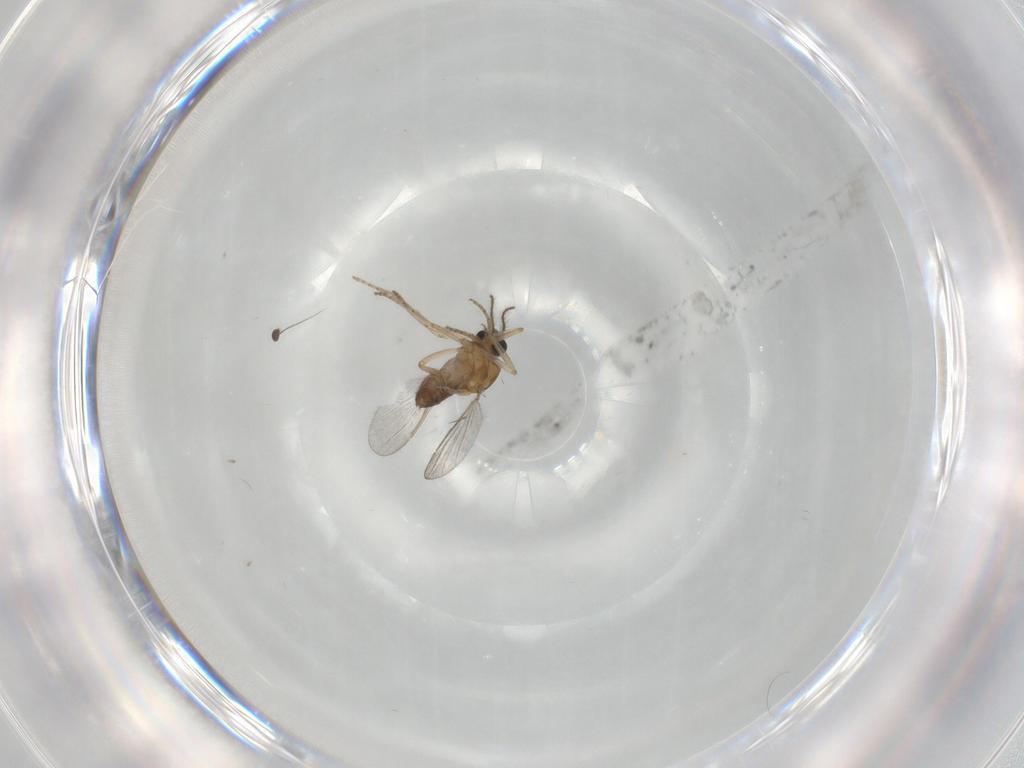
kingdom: Animalia
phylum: Arthropoda
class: Insecta
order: Diptera
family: Ceratopogonidae
